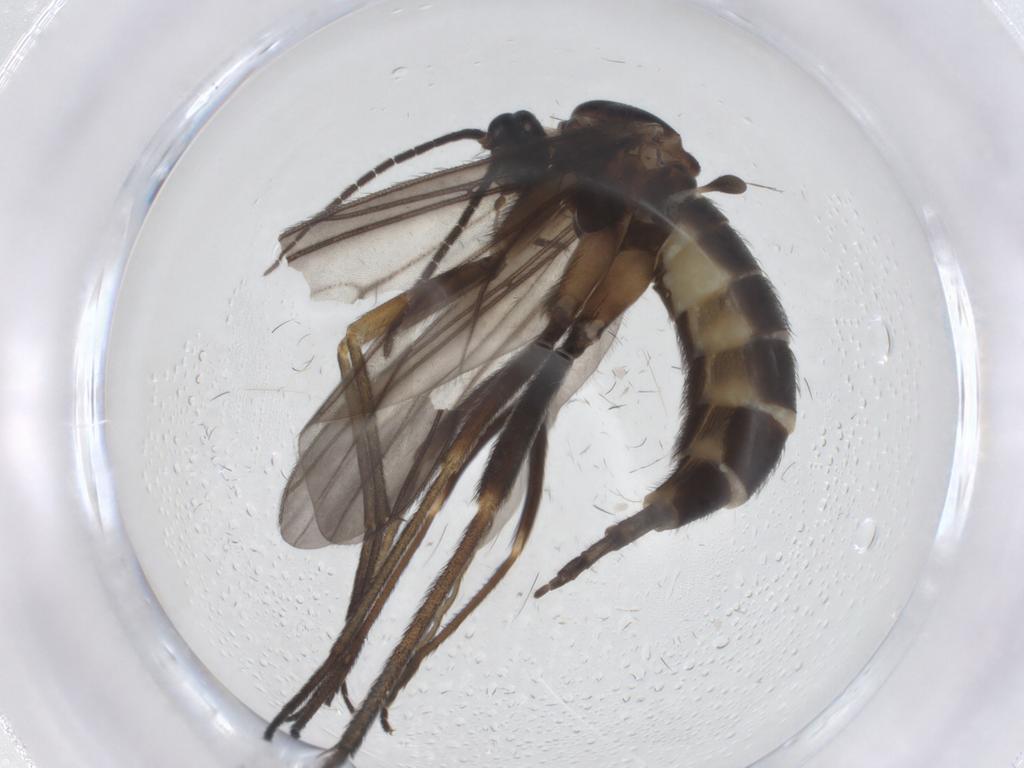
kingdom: Animalia
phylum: Arthropoda
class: Insecta
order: Diptera
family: Sciaridae
